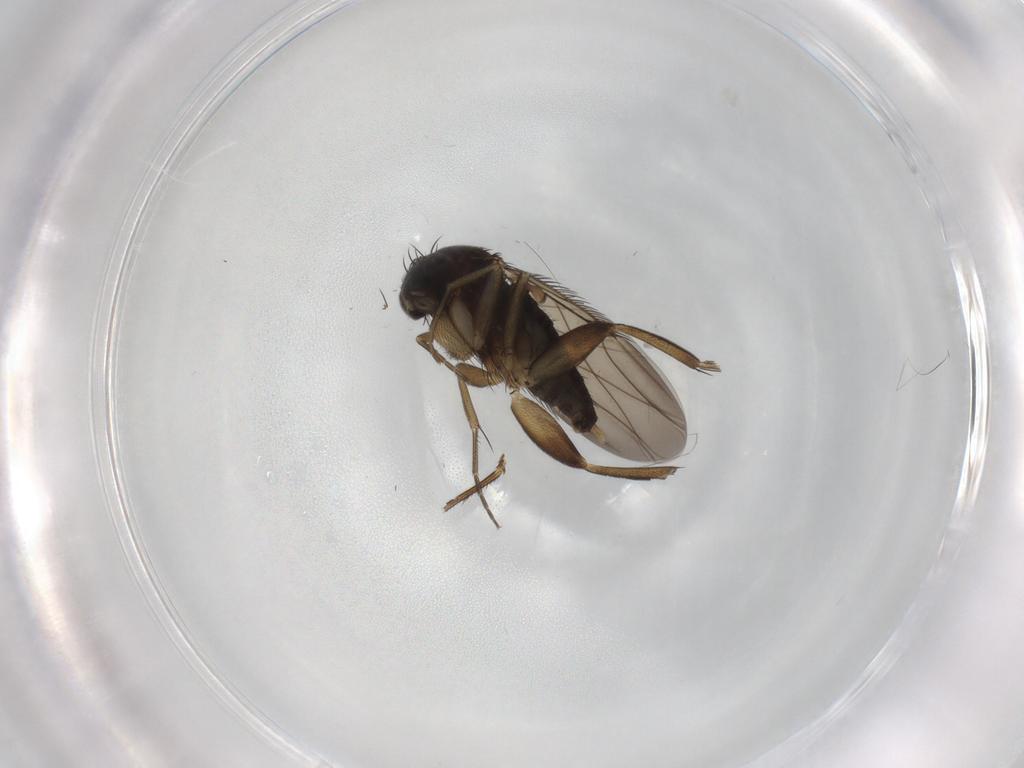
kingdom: Animalia
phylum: Arthropoda
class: Insecta
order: Diptera
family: Phoridae
